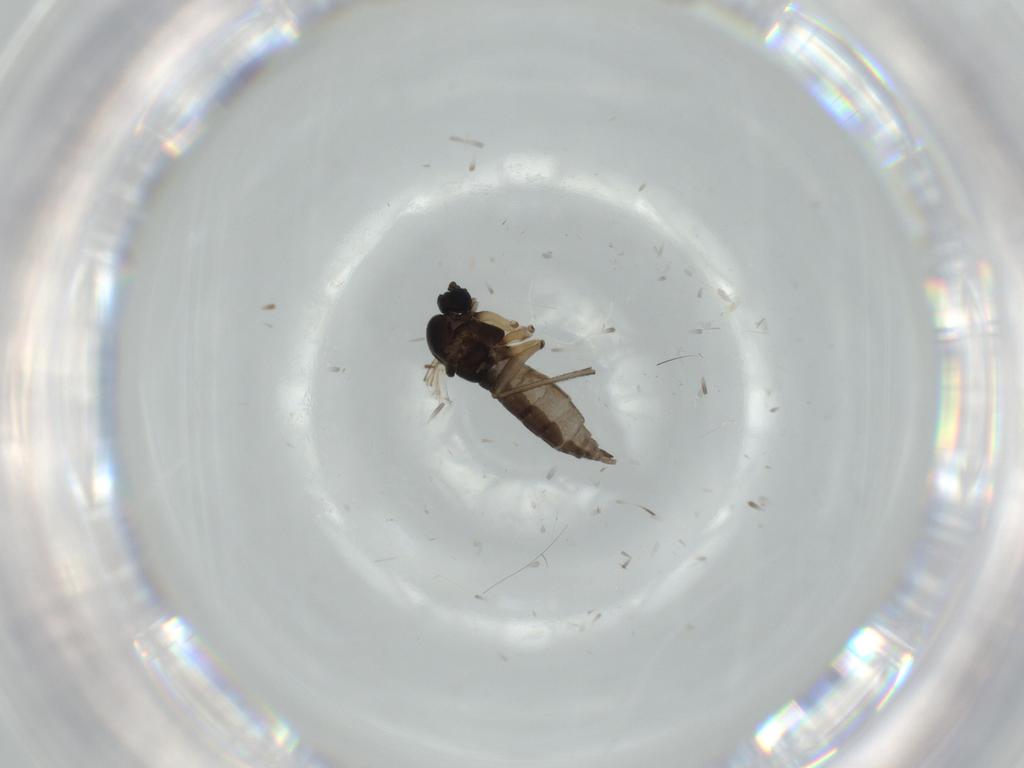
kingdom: Animalia
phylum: Arthropoda
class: Insecta
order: Diptera
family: Sciaridae
